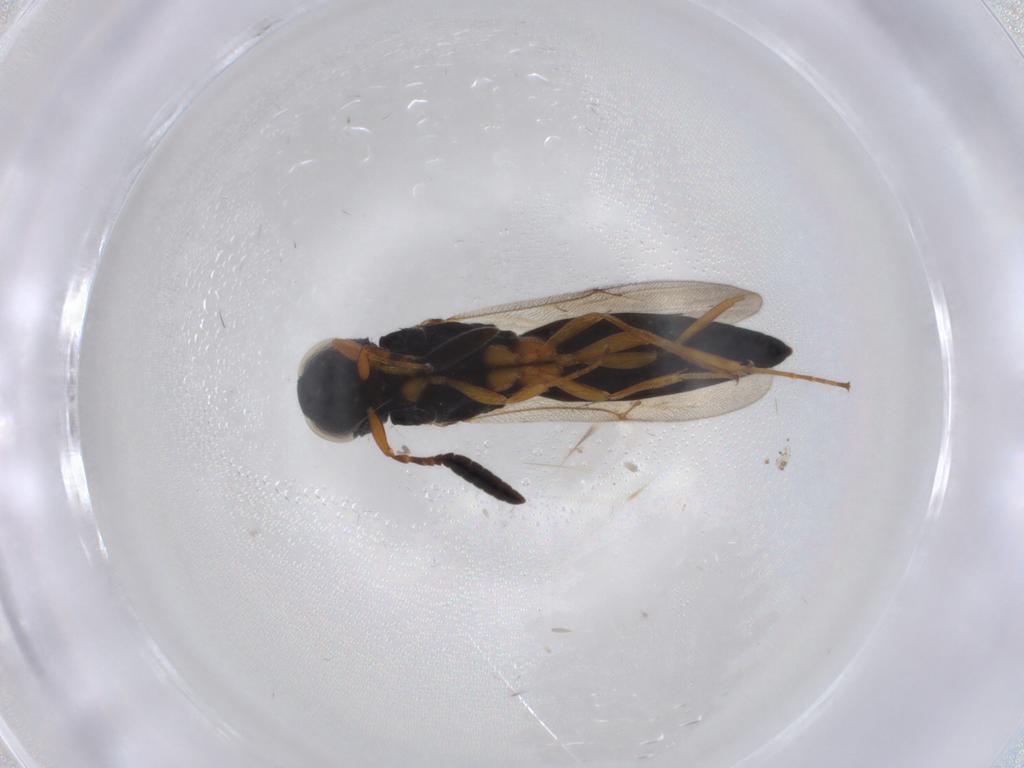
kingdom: Animalia
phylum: Arthropoda
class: Insecta
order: Hymenoptera
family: Scelionidae
